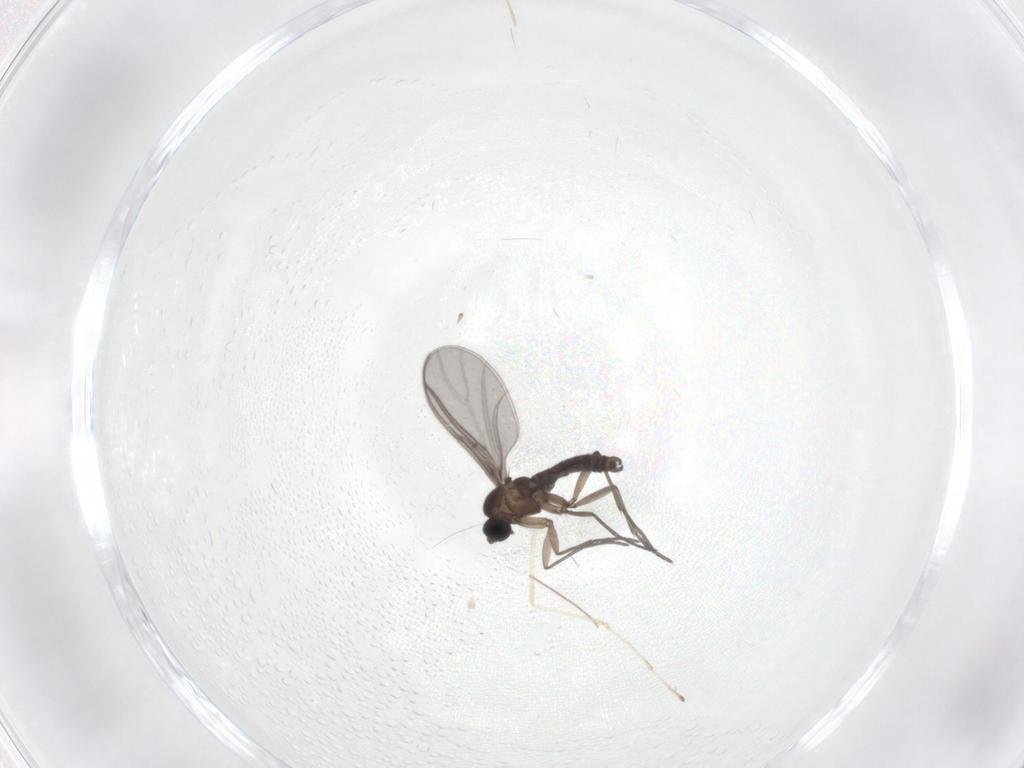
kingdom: Animalia
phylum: Arthropoda
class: Insecta
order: Diptera
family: Chironomidae
